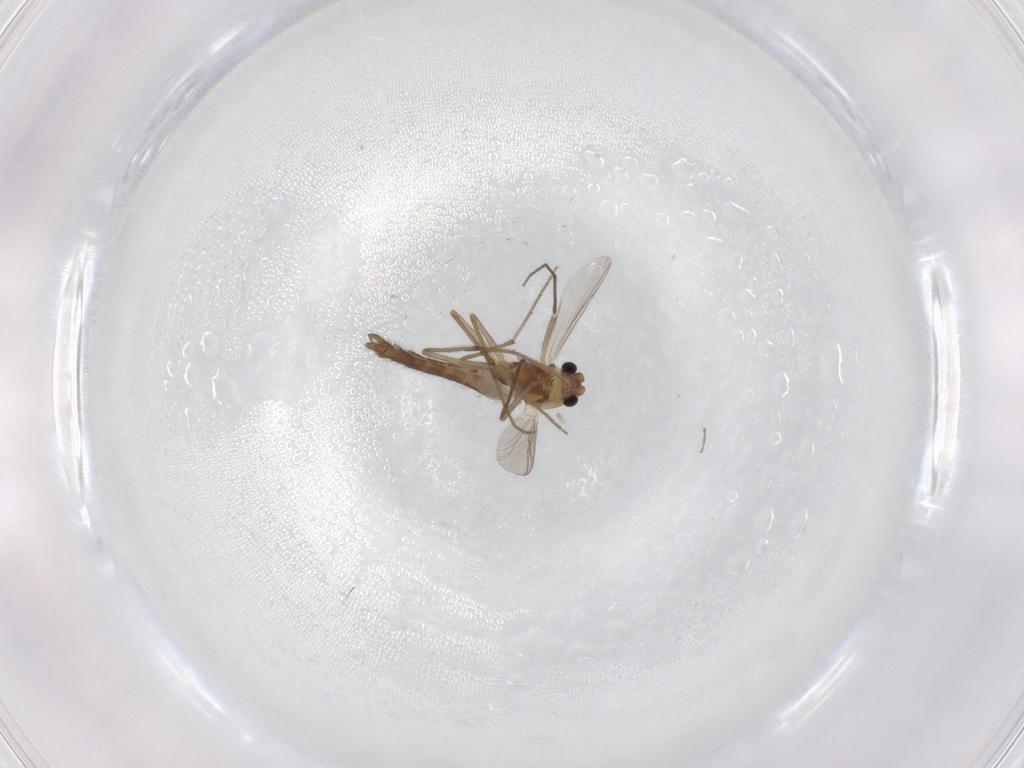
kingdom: Animalia
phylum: Arthropoda
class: Insecta
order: Diptera
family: Chironomidae
